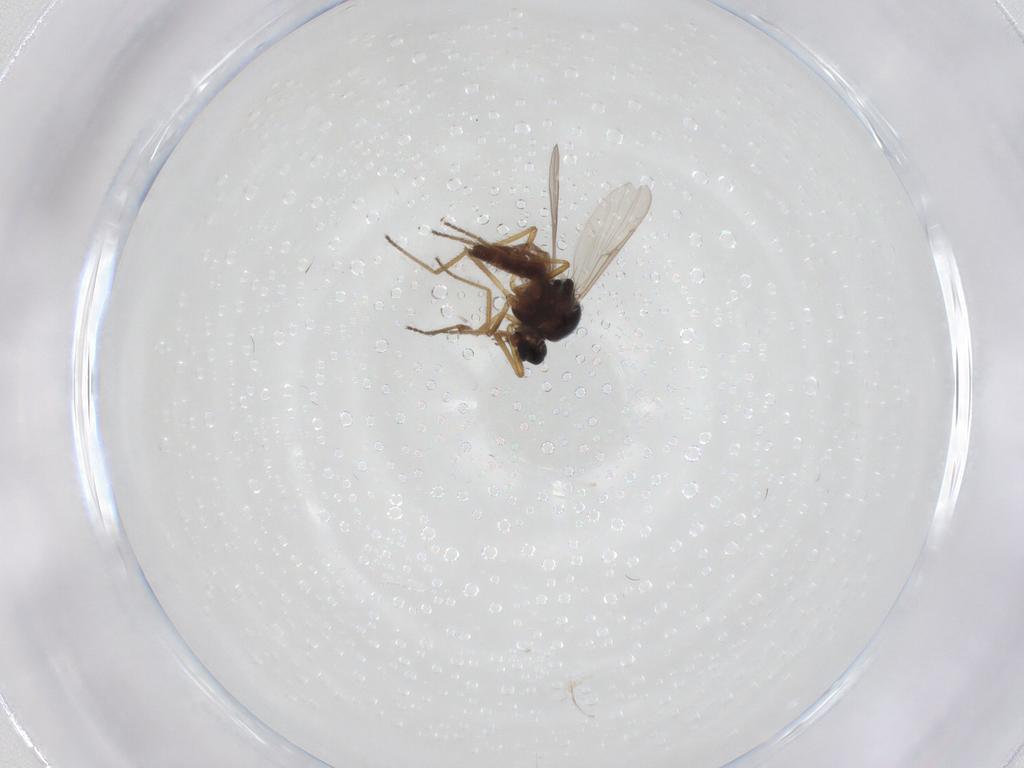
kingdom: Animalia
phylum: Arthropoda
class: Insecta
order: Diptera
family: Ceratopogonidae
